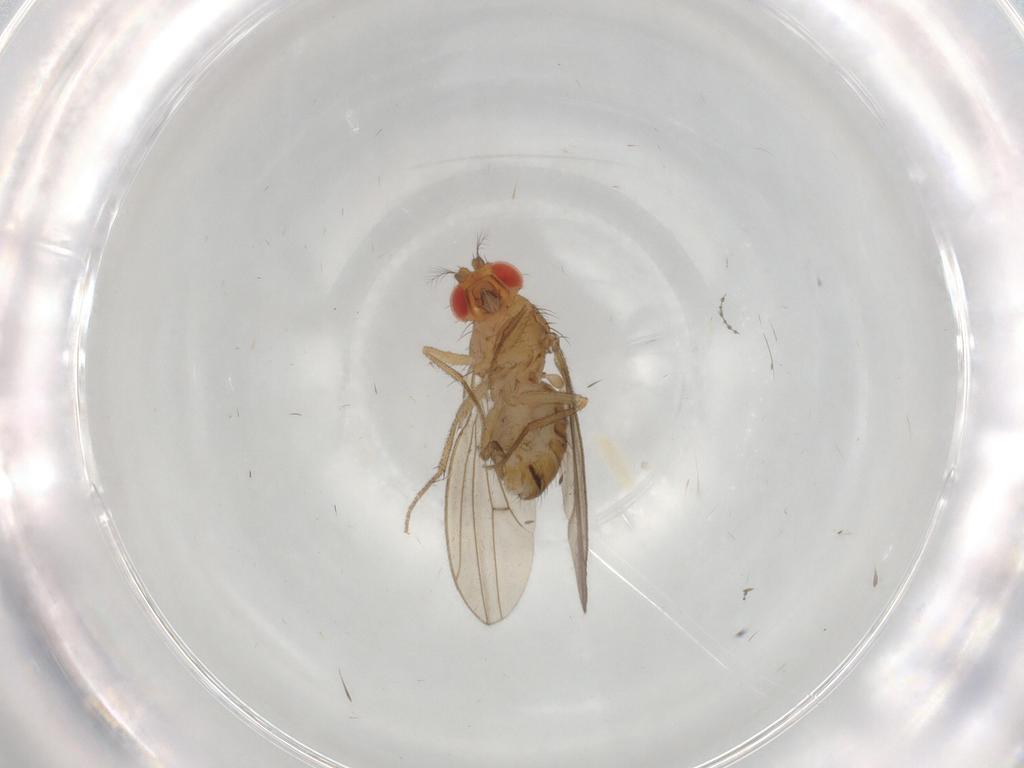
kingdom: Animalia
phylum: Arthropoda
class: Insecta
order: Diptera
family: Drosophilidae
